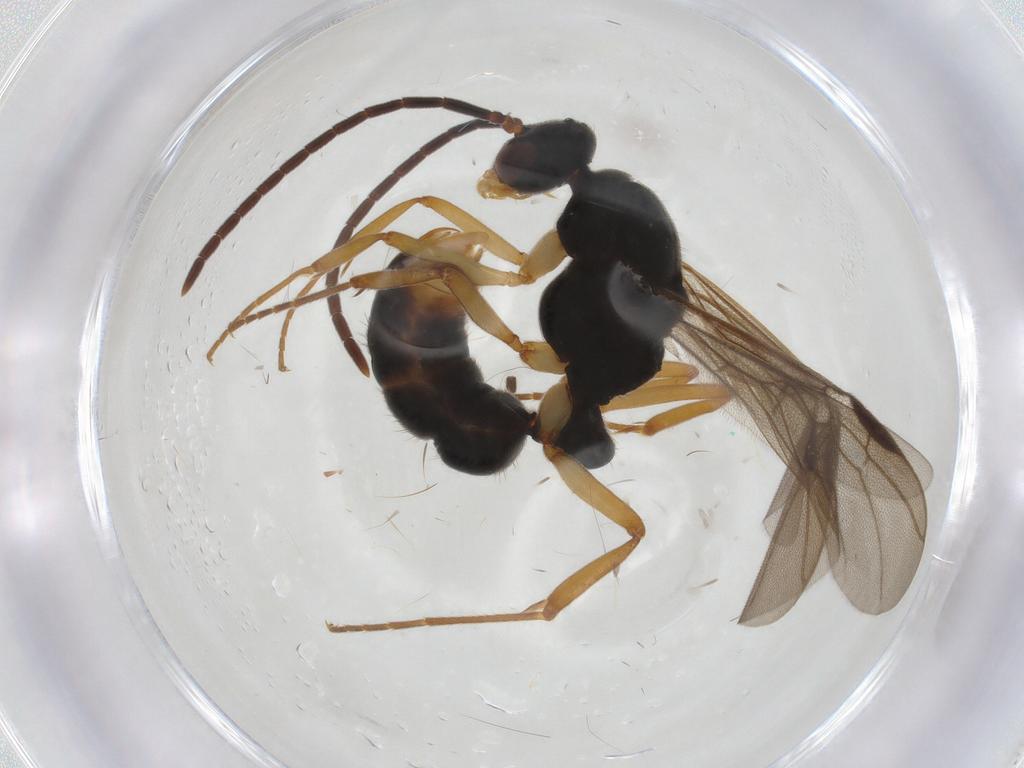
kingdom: Animalia
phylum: Arthropoda
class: Insecta
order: Hymenoptera
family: Formicidae
